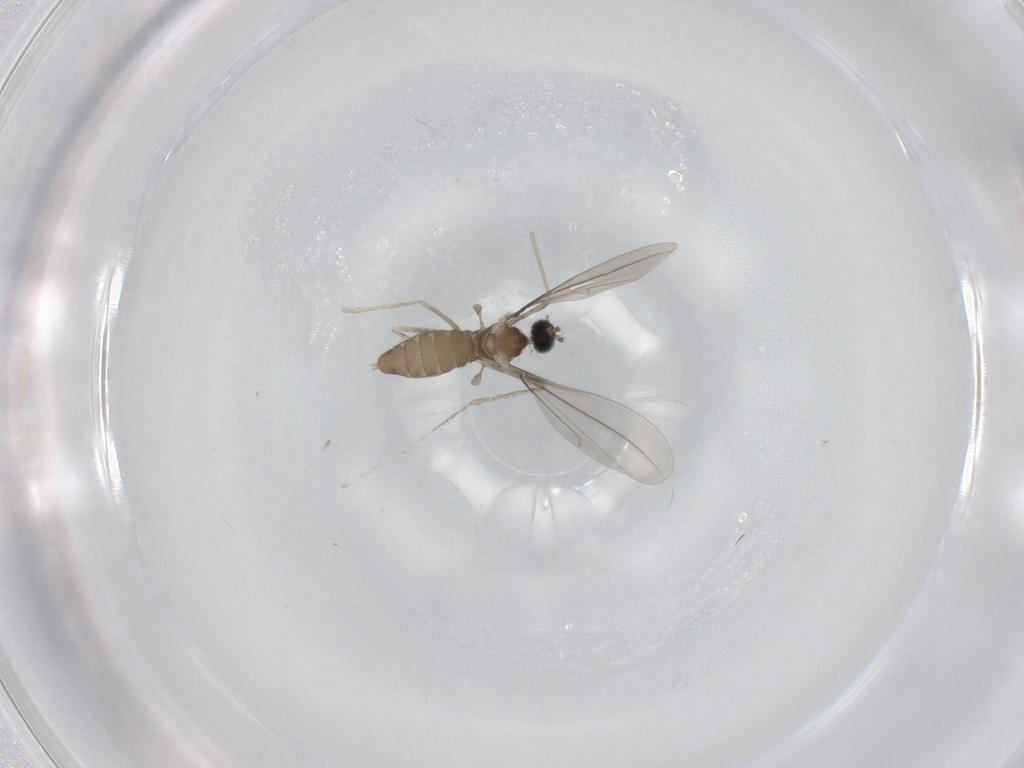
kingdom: Animalia
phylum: Arthropoda
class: Insecta
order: Diptera
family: Cecidomyiidae
